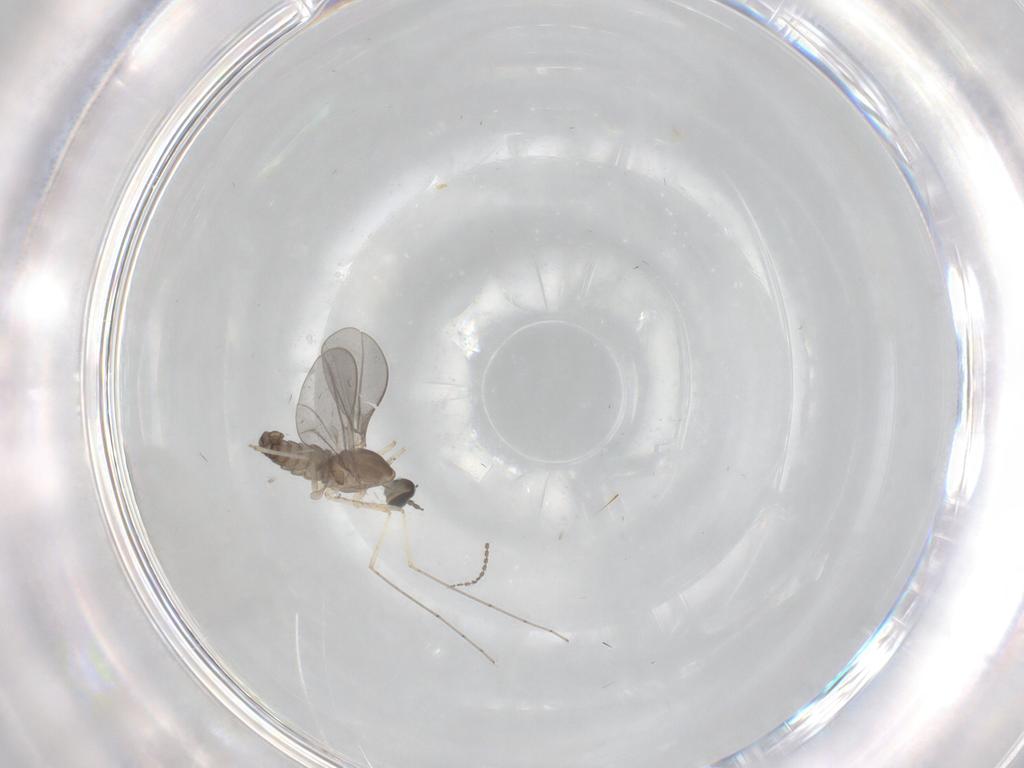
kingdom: Animalia
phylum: Arthropoda
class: Insecta
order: Diptera
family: Cecidomyiidae
